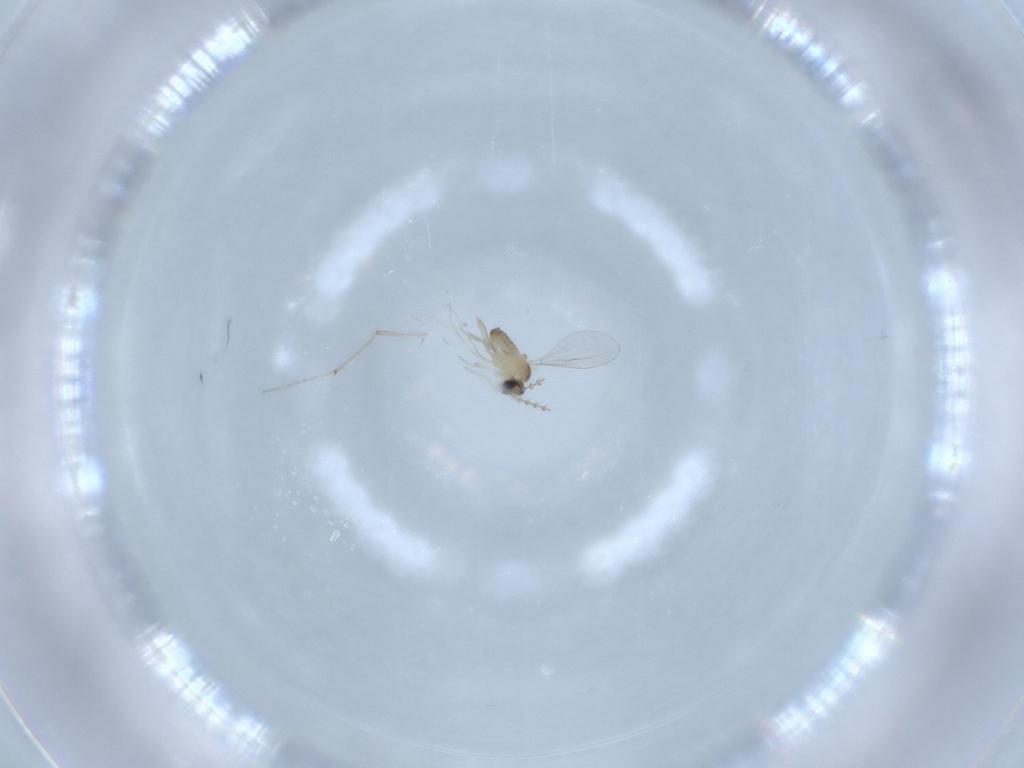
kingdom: Animalia
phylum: Arthropoda
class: Insecta
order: Diptera
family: Cecidomyiidae
